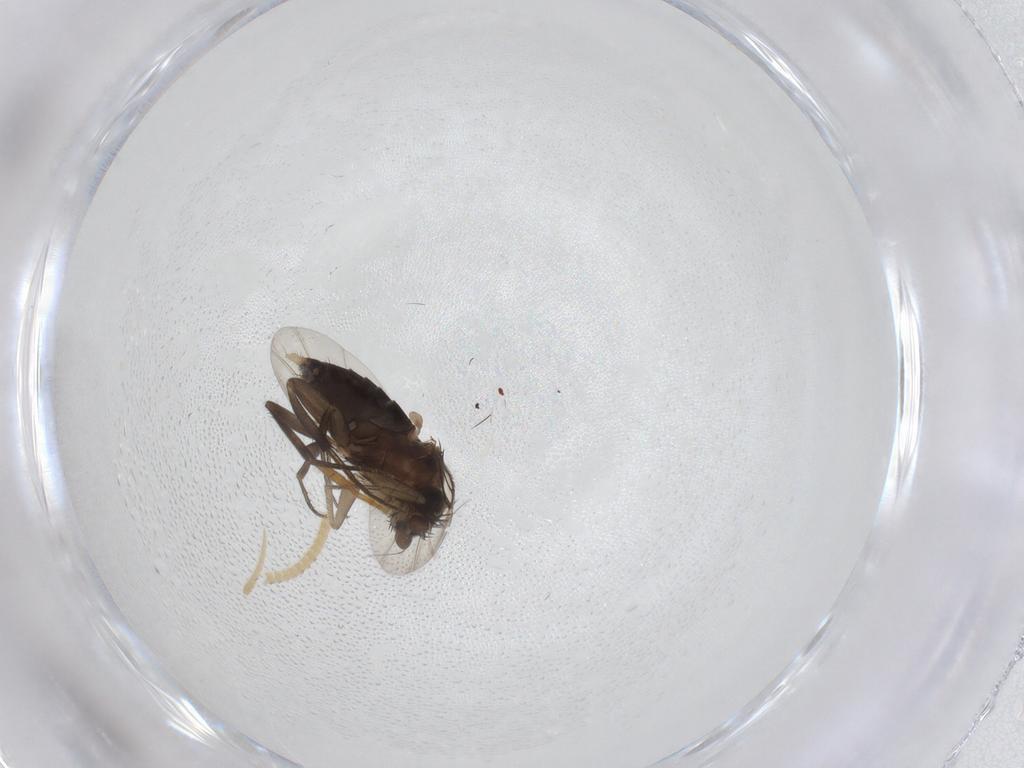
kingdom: Animalia
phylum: Arthropoda
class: Insecta
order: Diptera
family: Phoridae
